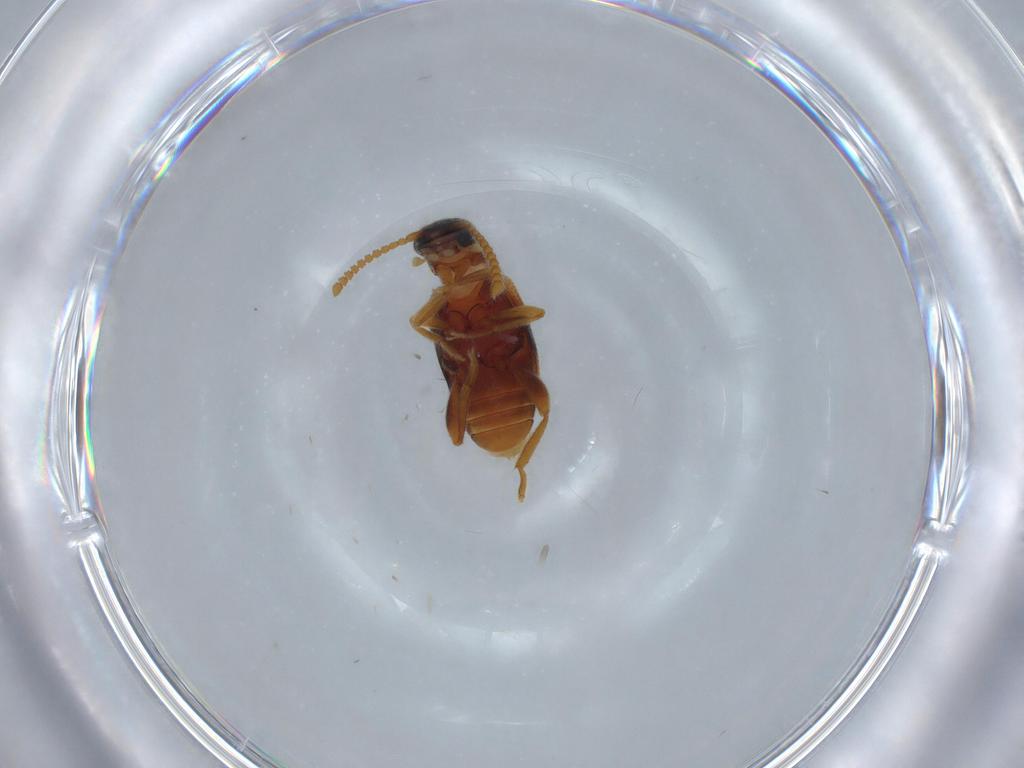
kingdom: Animalia
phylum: Arthropoda
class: Insecta
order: Coleoptera
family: Aderidae
